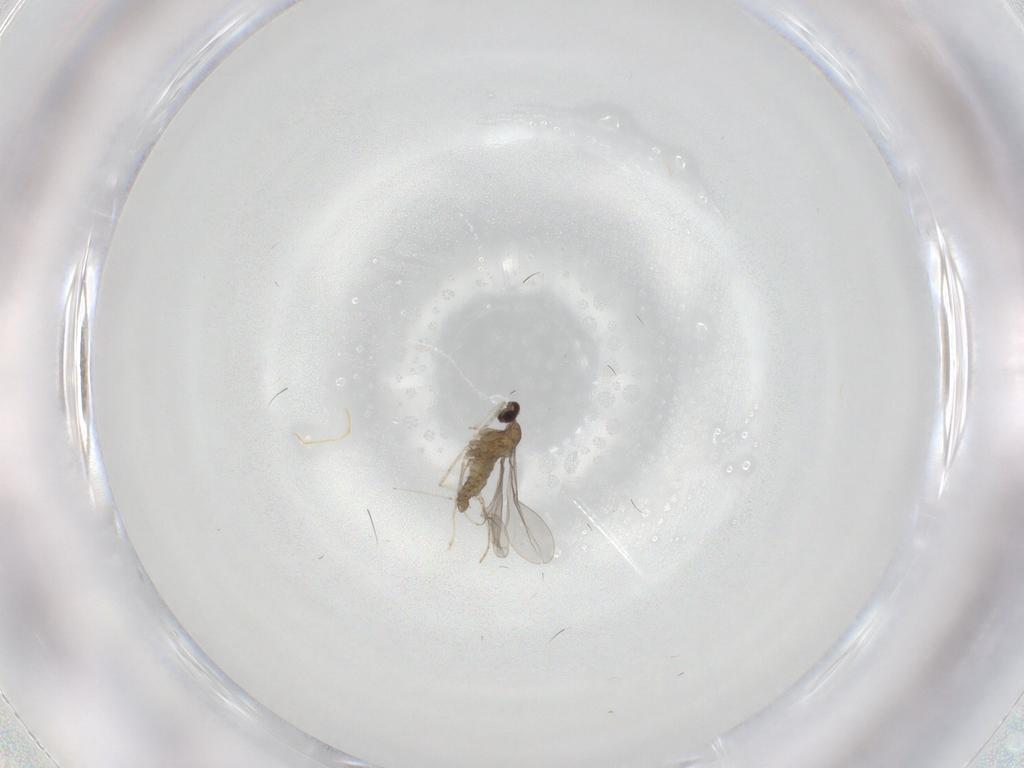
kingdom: Animalia
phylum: Arthropoda
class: Insecta
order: Diptera
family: Cecidomyiidae
